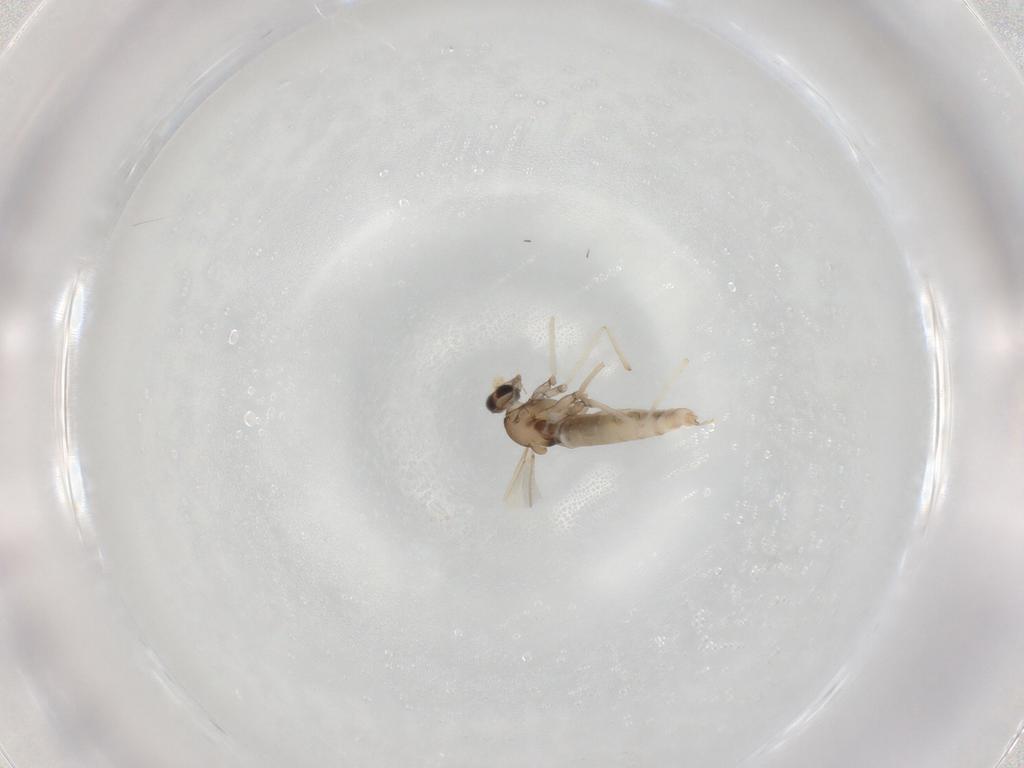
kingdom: Animalia
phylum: Arthropoda
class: Insecta
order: Diptera
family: Cecidomyiidae
